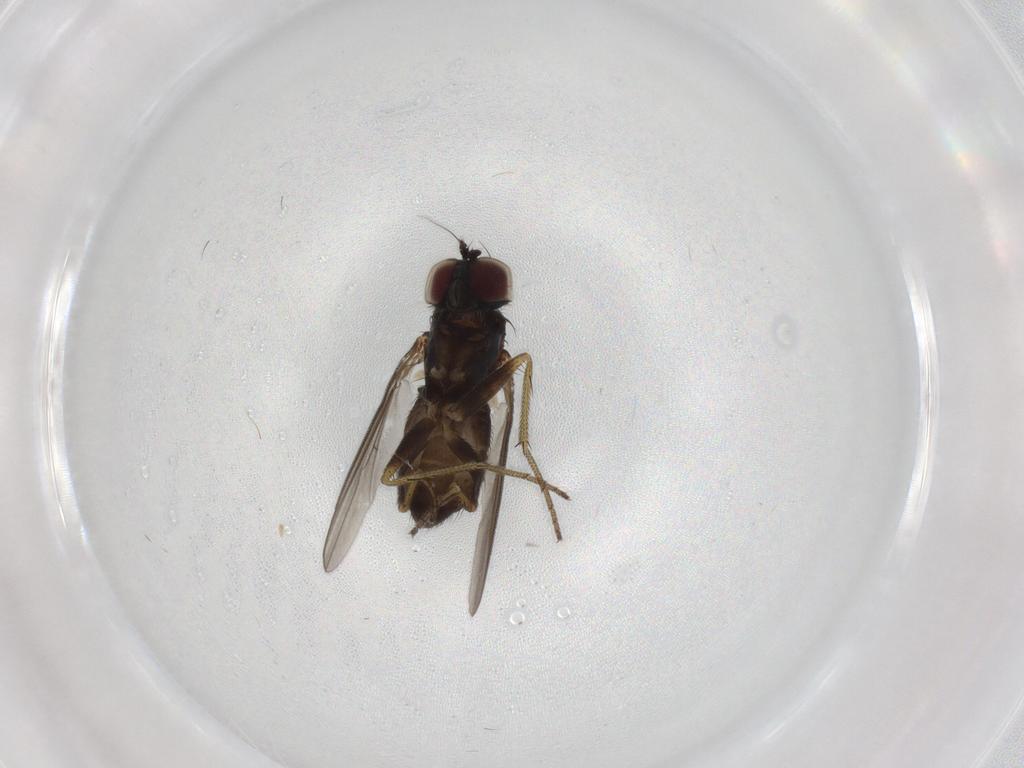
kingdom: Animalia
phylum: Arthropoda
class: Insecta
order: Diptera
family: Ceratopogonidae
